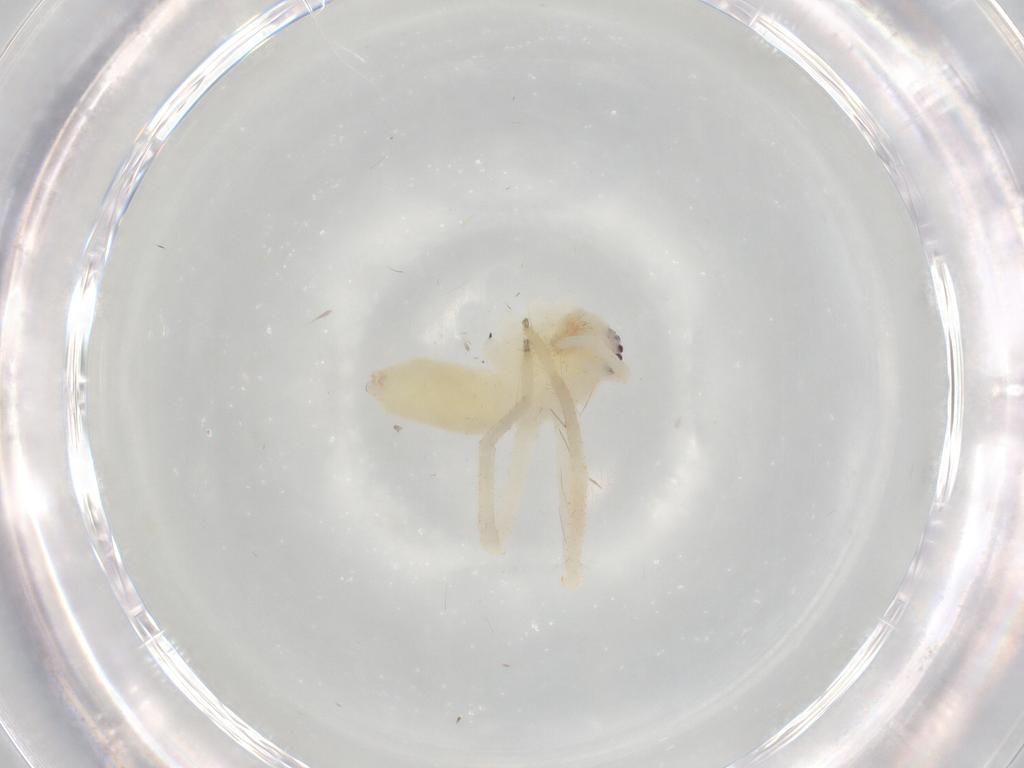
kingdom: Animalia
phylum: Arthropoda
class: Arachnida
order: Araneae
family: Sparassidae
